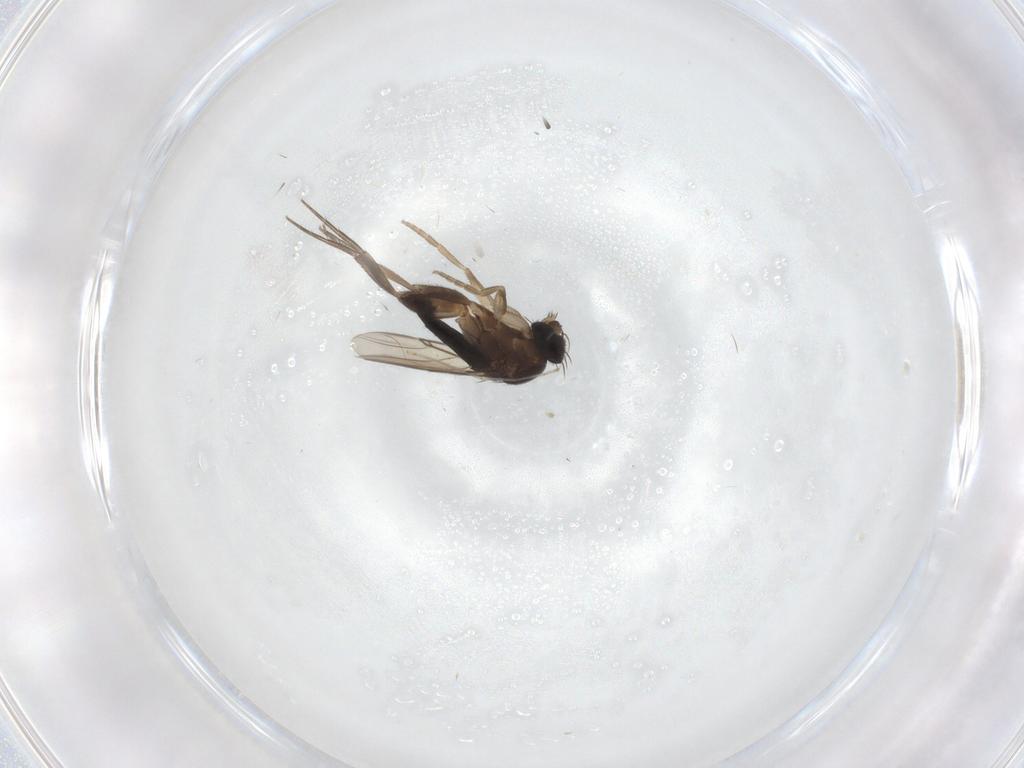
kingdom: Animalia
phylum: Arthropoda
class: Insecta
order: Diptera
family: Phoridae
